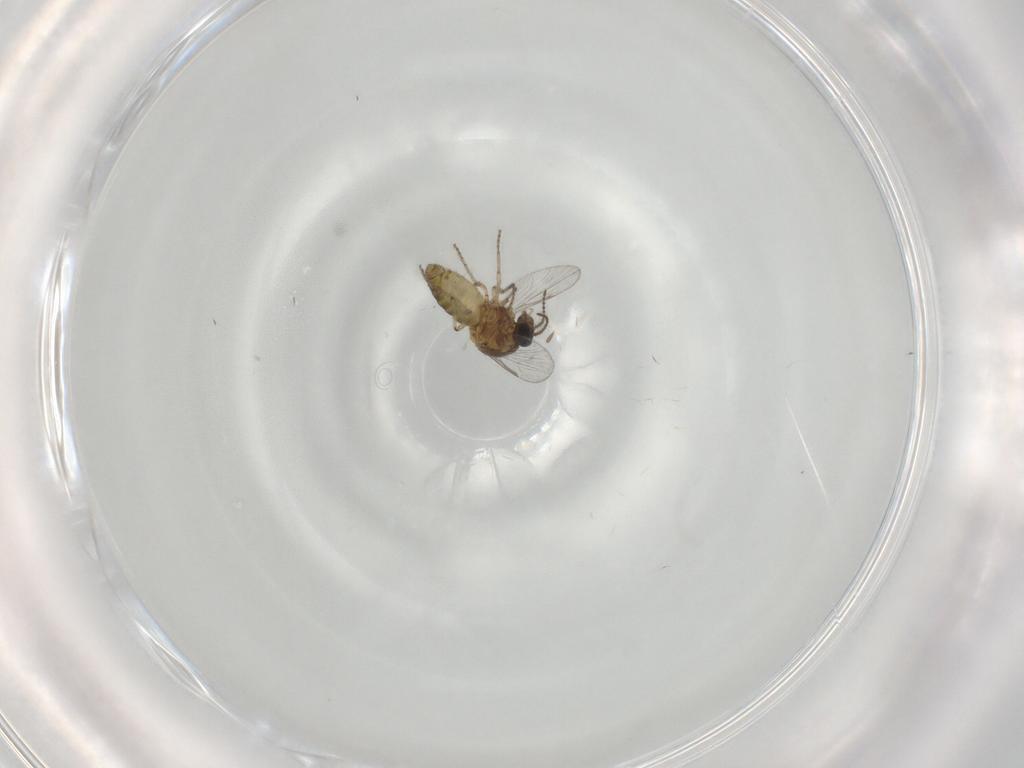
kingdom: Animalia
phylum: Arthropoda
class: Insecta
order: Diptera
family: Ceratopogonidae
